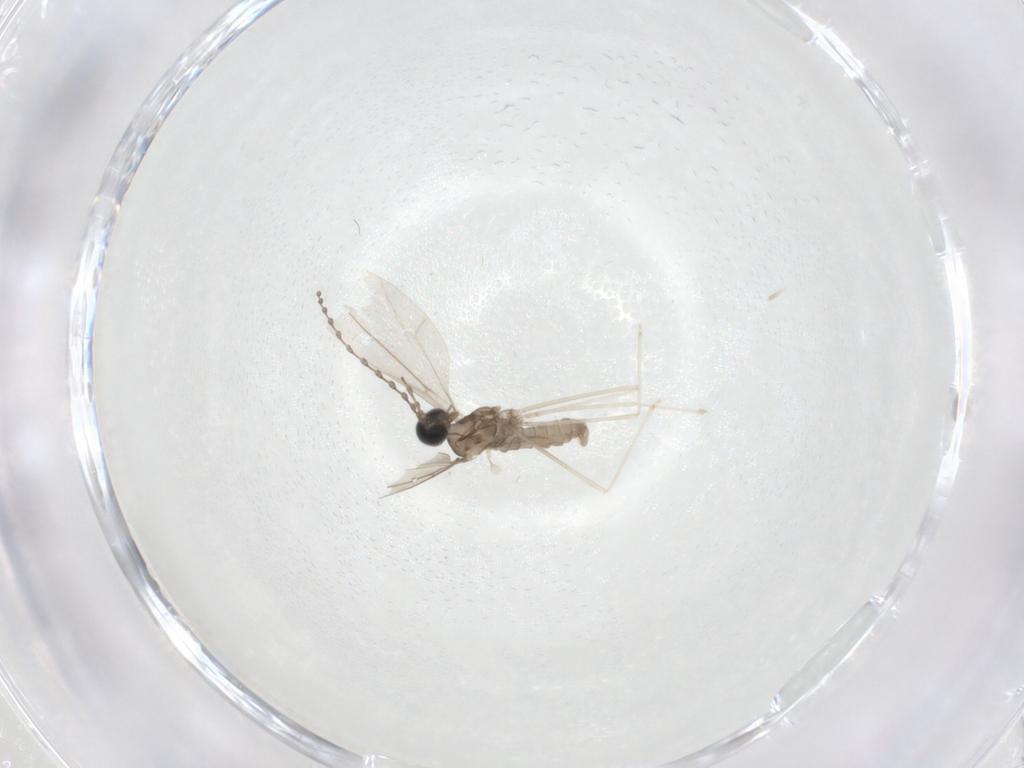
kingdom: Animalia
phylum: Arthropoda
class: Insecta
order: Diptera
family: Cecidomyiidae
